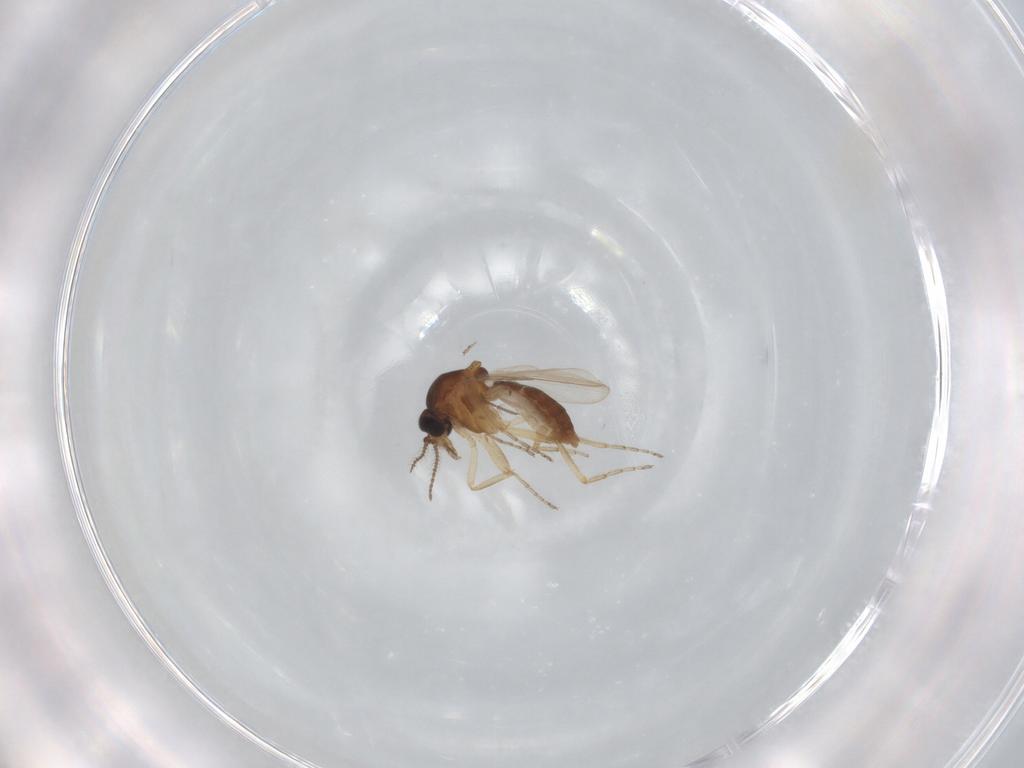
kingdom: Animalia
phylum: Arthropoda
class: Insecta
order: Diptera
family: Ceratopogonidae
